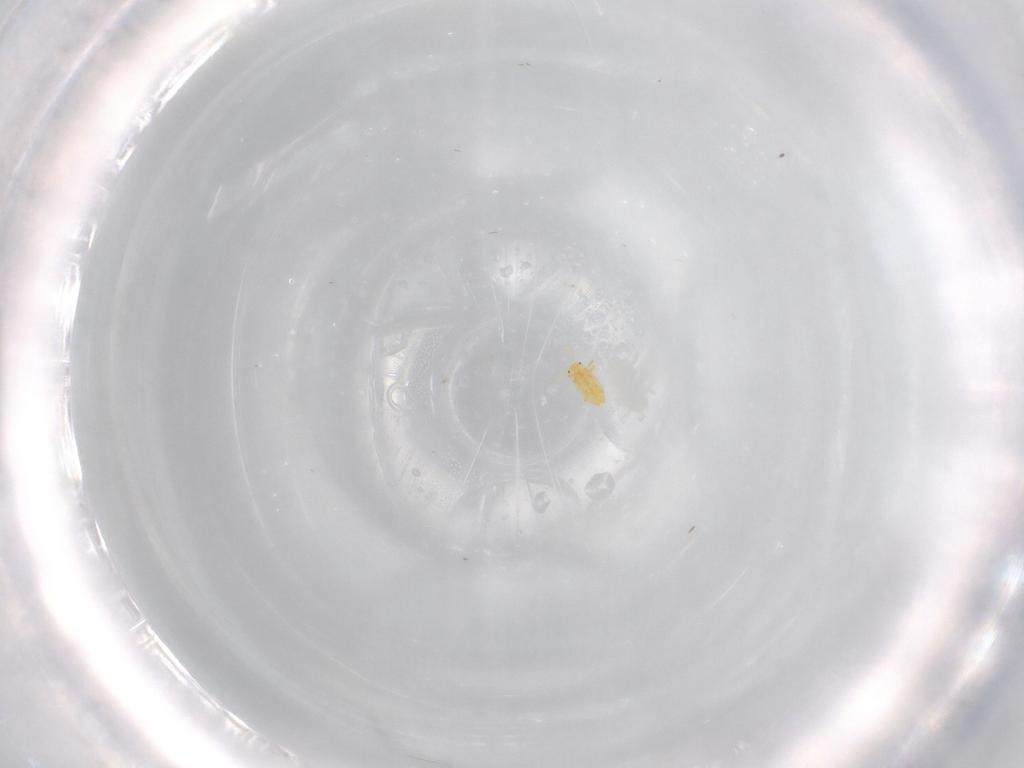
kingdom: Animalia
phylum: Arthropoda
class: Insecta
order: Hemiptera
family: Coccoidea_incertae_sedis
